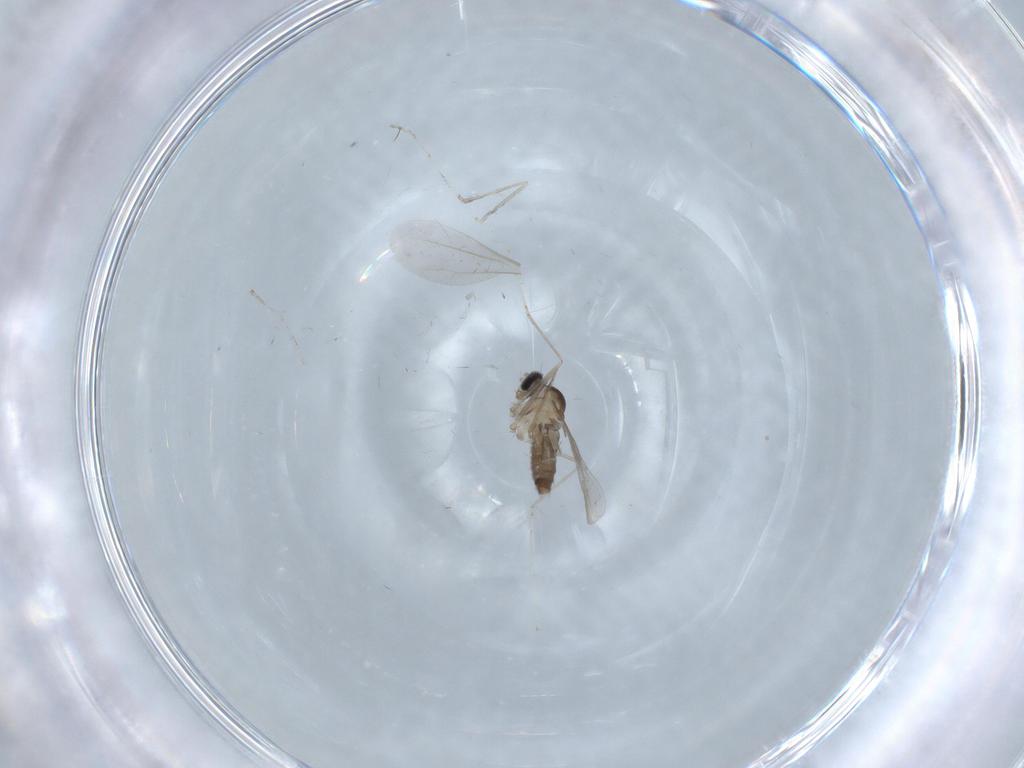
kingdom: Animalia
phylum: Arthropoda
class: Insecta
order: Diptera
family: Cecidomyiidae
